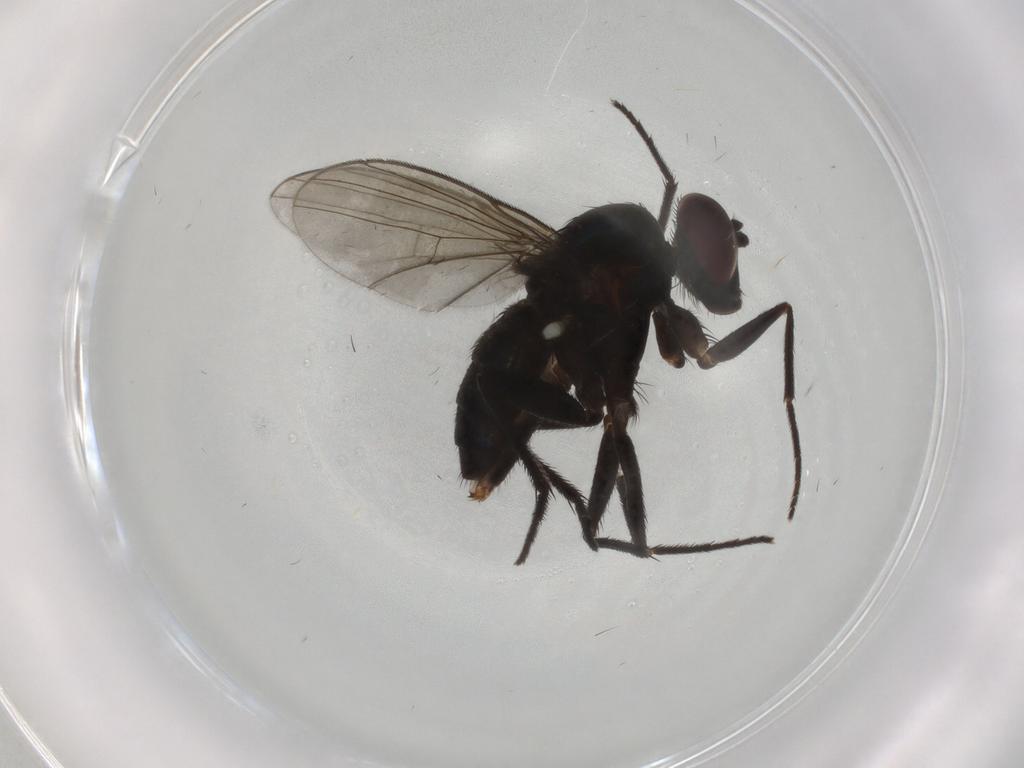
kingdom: Animalia
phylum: Arthropoda
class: Insecta
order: Diptera
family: Dolichopodidae
